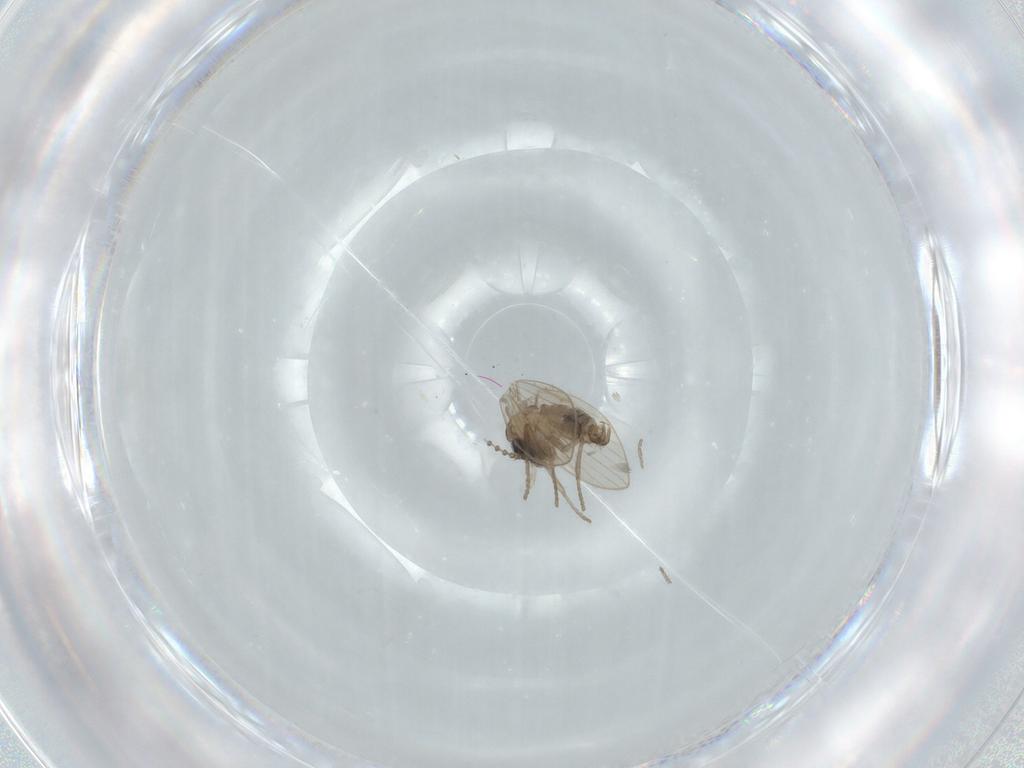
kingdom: Animalia
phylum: Arthropoda
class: Insecta
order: Diptera
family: Psychodidae
